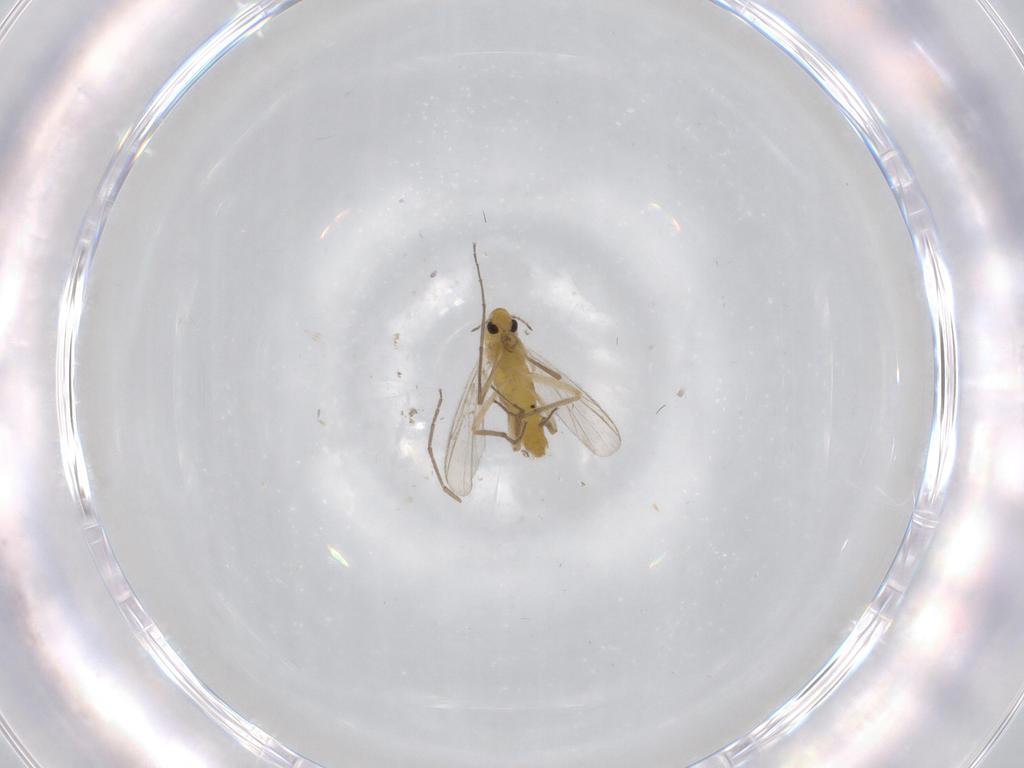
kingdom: Animalia
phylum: Arthropoda
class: Insecta
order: Diptera
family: Chironomidae
